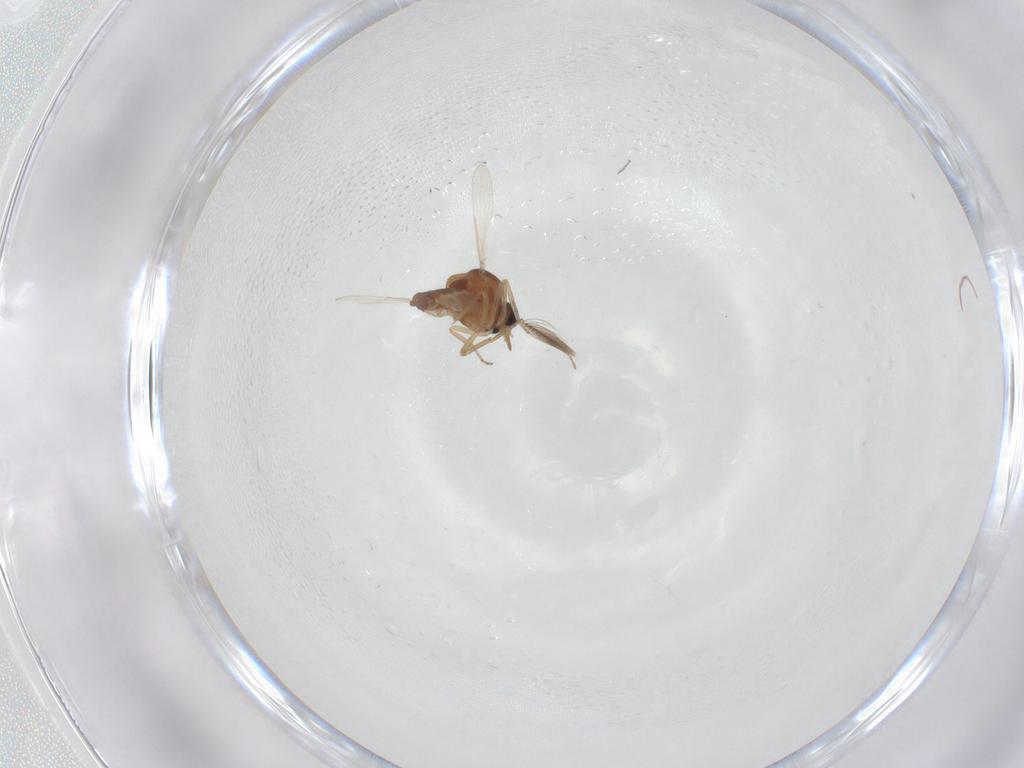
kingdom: Animalia
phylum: Arthropoda
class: Insecta
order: Diptera
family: Ceratopogonidae
